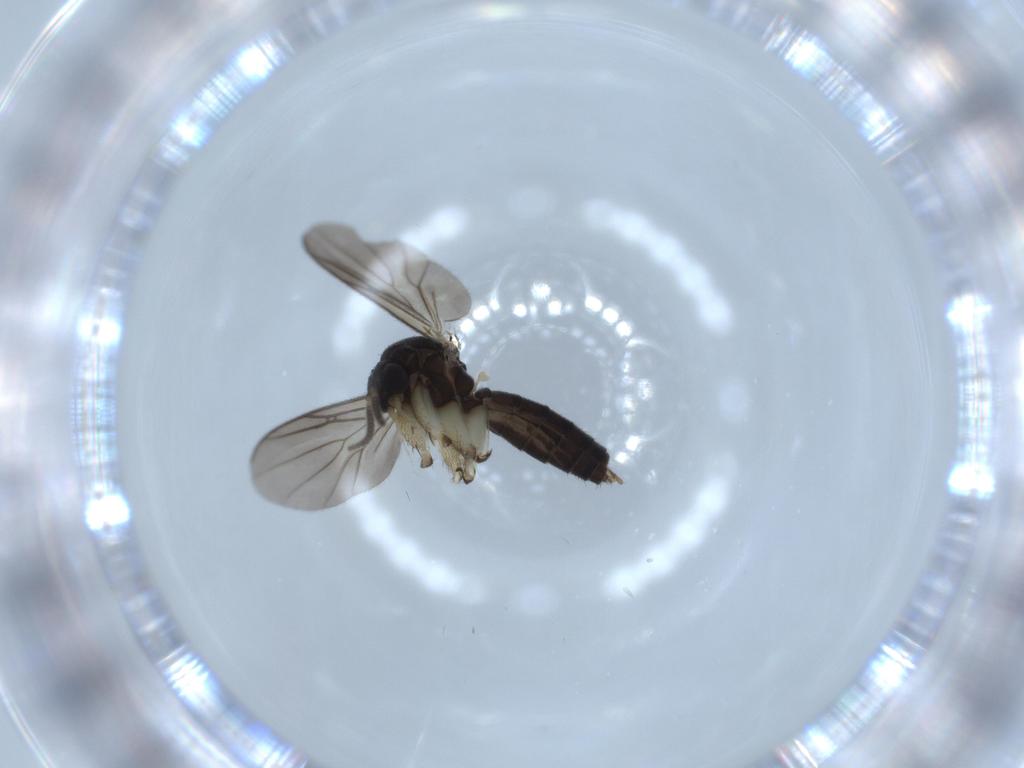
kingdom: Animalia
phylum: Arthropoda
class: Insecta
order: Diptera
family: Mycetophilidae
